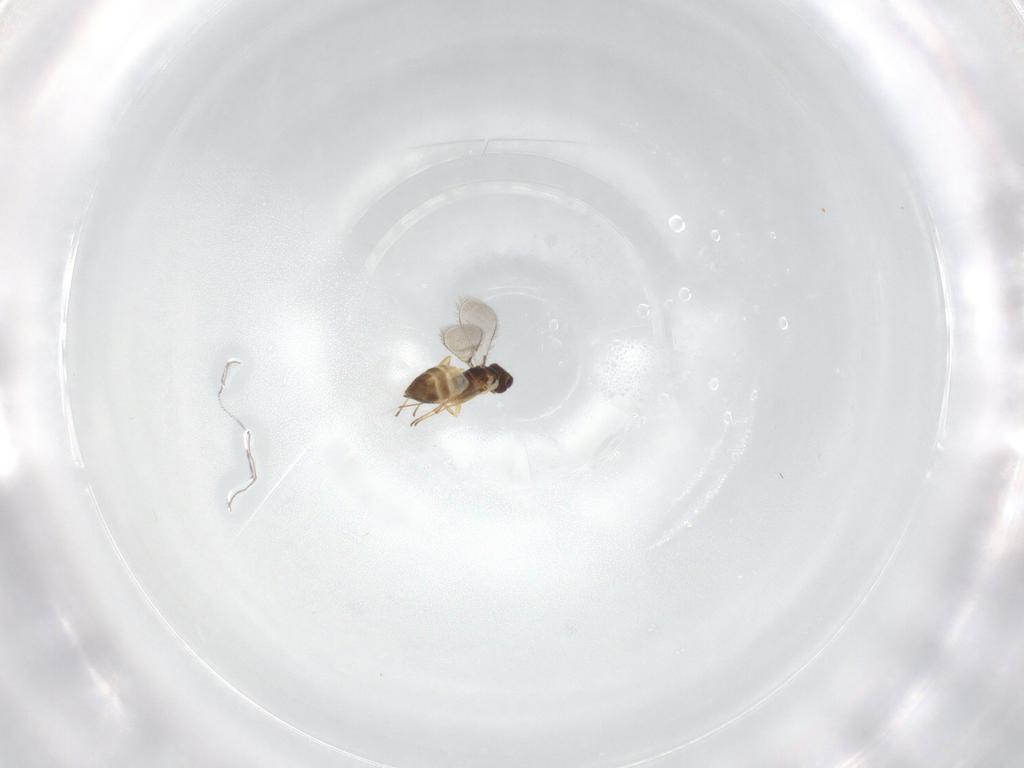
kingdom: Animalia
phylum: Arthropoda
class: Insecta
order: Hymenoptera
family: Mymaridae
